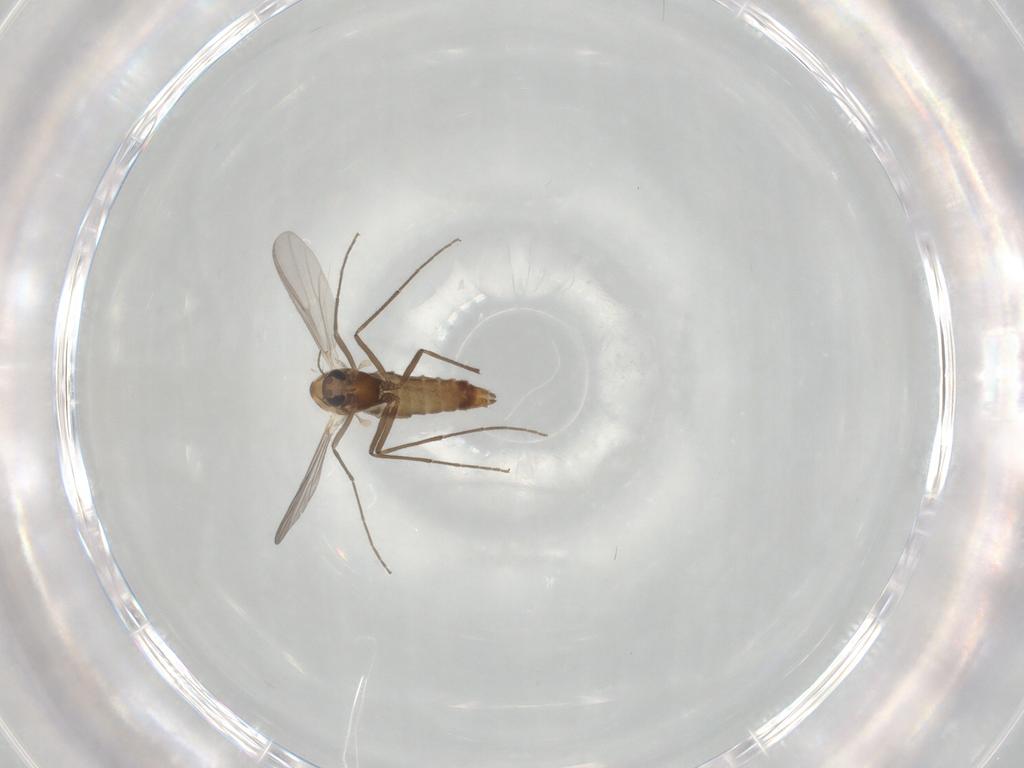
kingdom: Animalia
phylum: Arthropoda
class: Insecta
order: Diptera
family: Chironomidae
